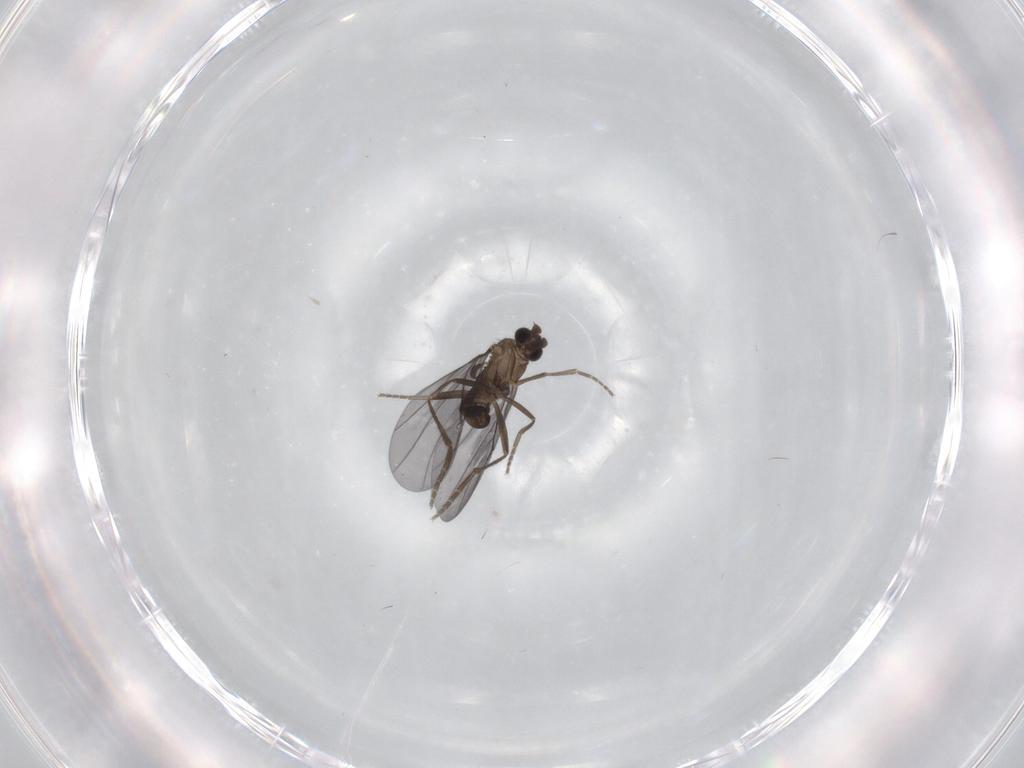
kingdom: Animalia
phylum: Arthropoda
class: Insecta
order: Diptera
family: Cecidomyiidae
